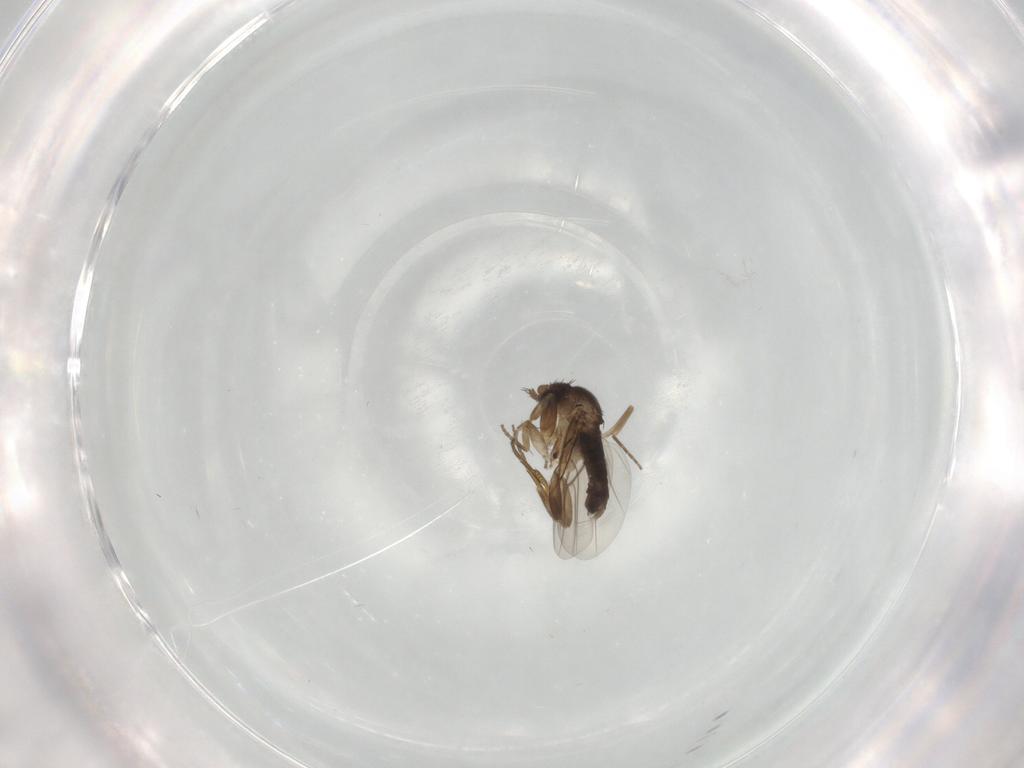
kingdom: Animalia
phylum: Arthropoda
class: Insecta
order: Diptera
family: Phoridae
